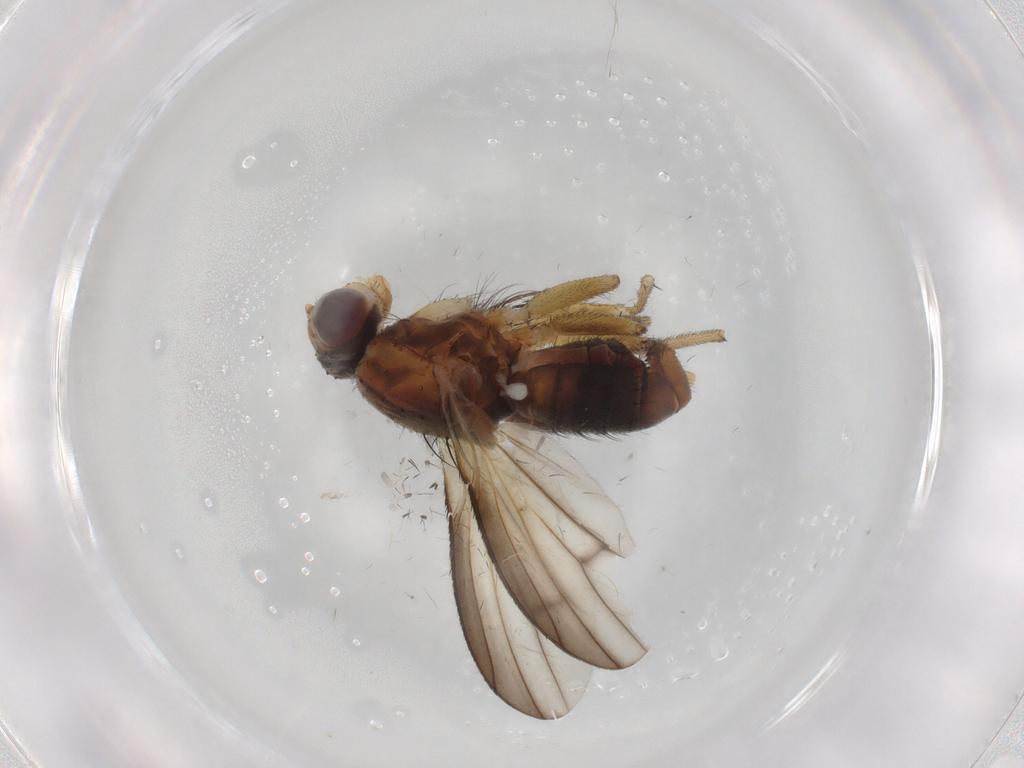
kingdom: Animalia
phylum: Arthropoda
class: Insecta
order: Diptera
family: Heleomyzidae
